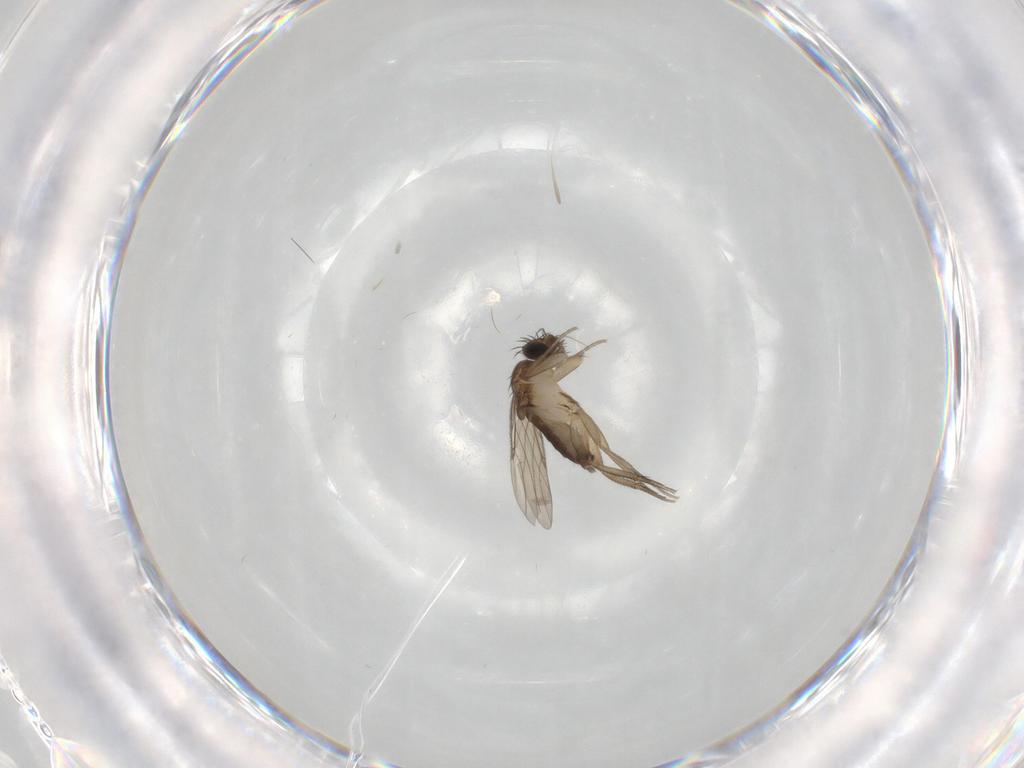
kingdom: Animalia
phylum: Arthropoda
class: Insecta
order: Diptera
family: Phoridae
